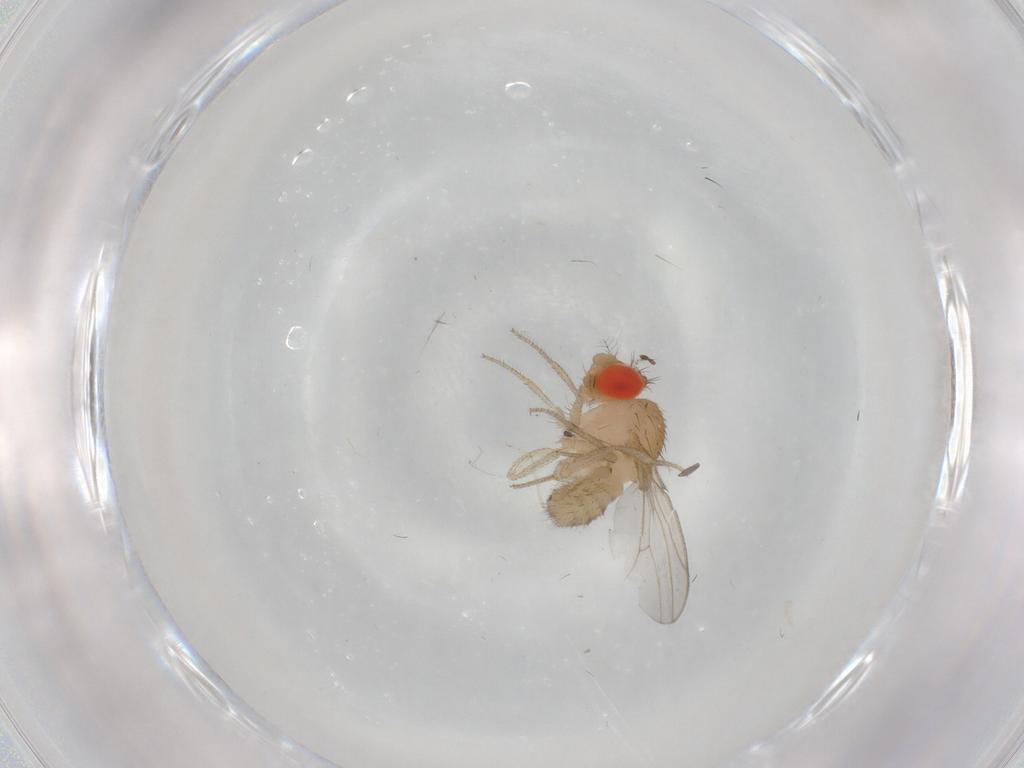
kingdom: Animalia
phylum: Arthropoda
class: Insecta
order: Diptera
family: Drosophilidae
